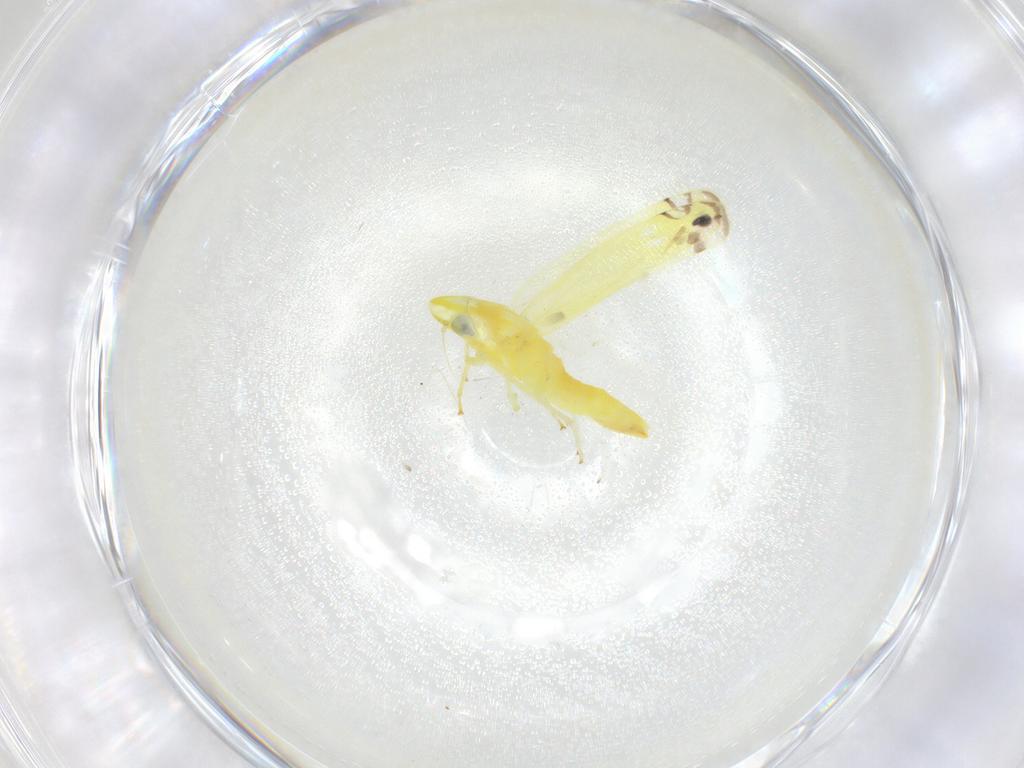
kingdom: Animalia
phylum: Arthropoda
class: Insecta
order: Hemiptera
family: Cicadellidae
